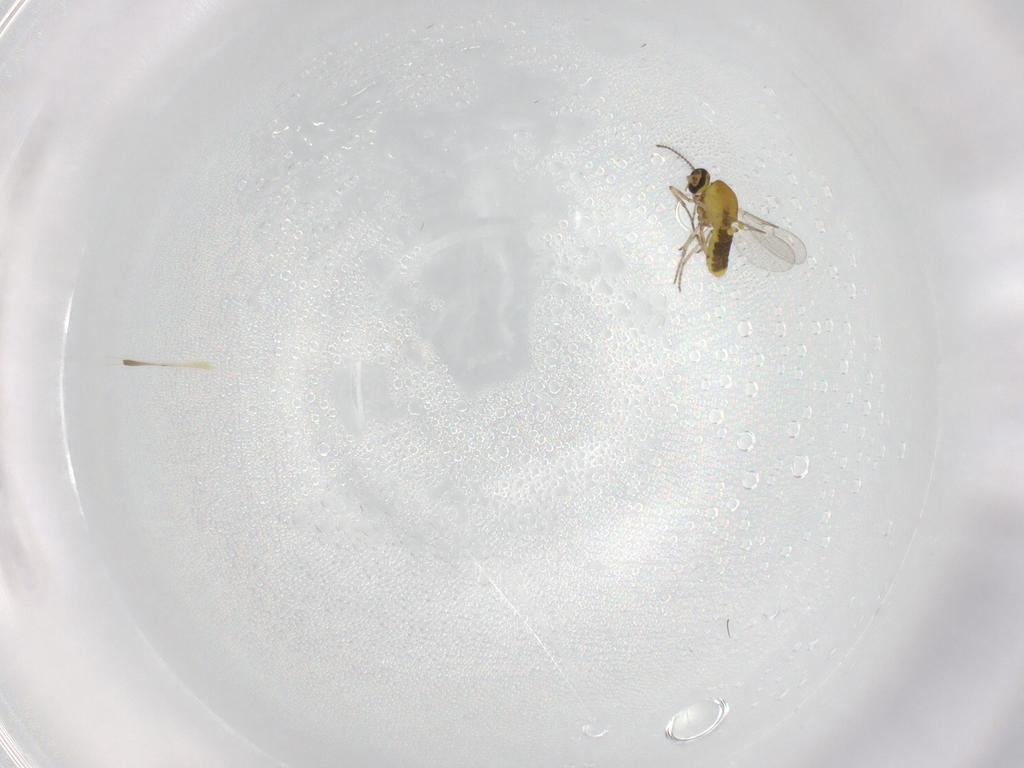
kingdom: Animalia
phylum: Arthropoda
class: Insecta
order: Diptera
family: Ceratopogonidae
